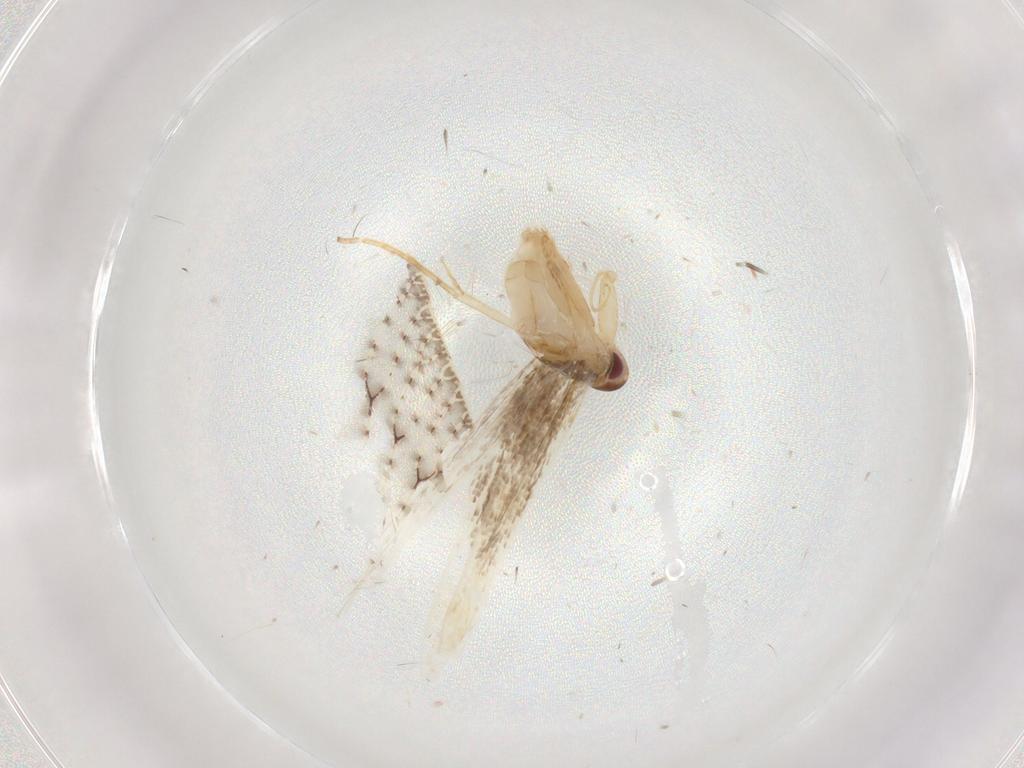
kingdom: Animalia
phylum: Arthropoda
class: Insecta
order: Lepidoptera
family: Cosmopterigidae
